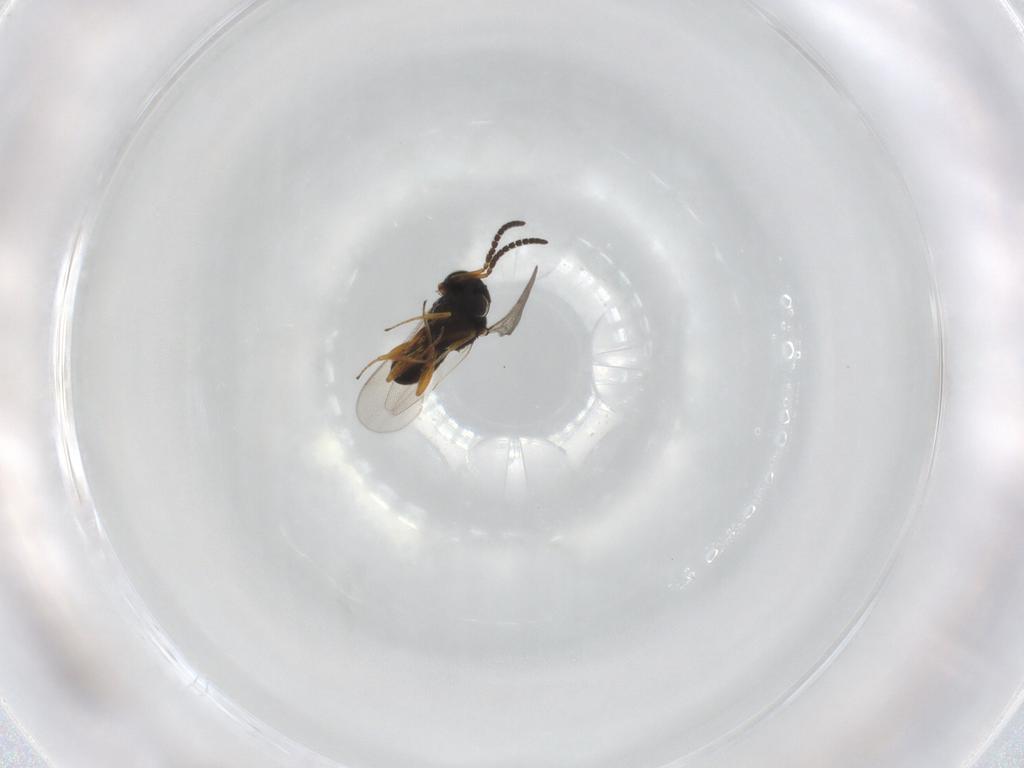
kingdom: Animalia
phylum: Arthropoda
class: Insecta
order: Hymenoptera
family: Scelionidae
